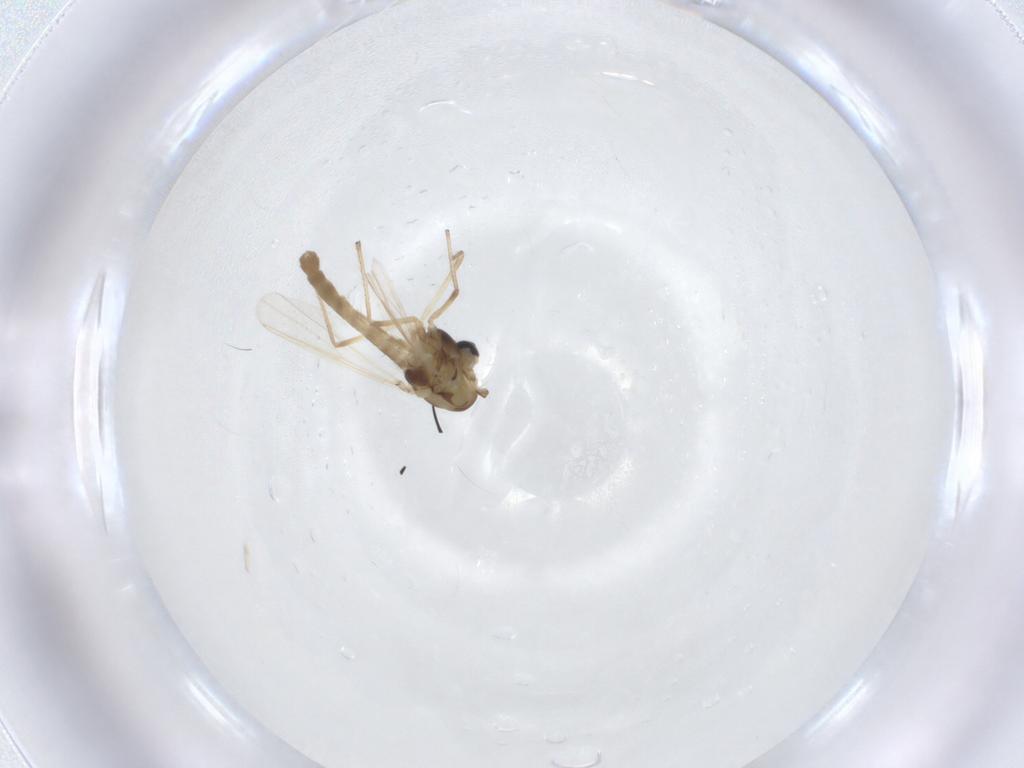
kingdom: Animalia
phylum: Arthropoda
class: Insecta
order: Diptera
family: Chironomidae
